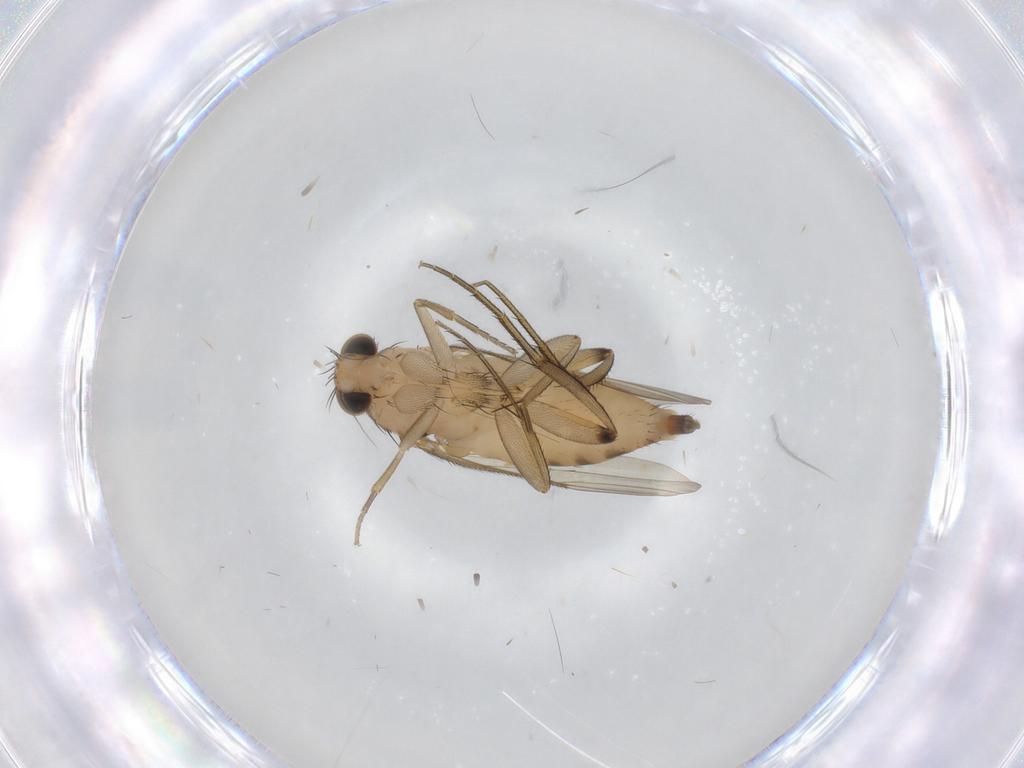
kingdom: Animalia
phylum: Arthropoda
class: Insecta
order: Diptera
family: Phoridae
